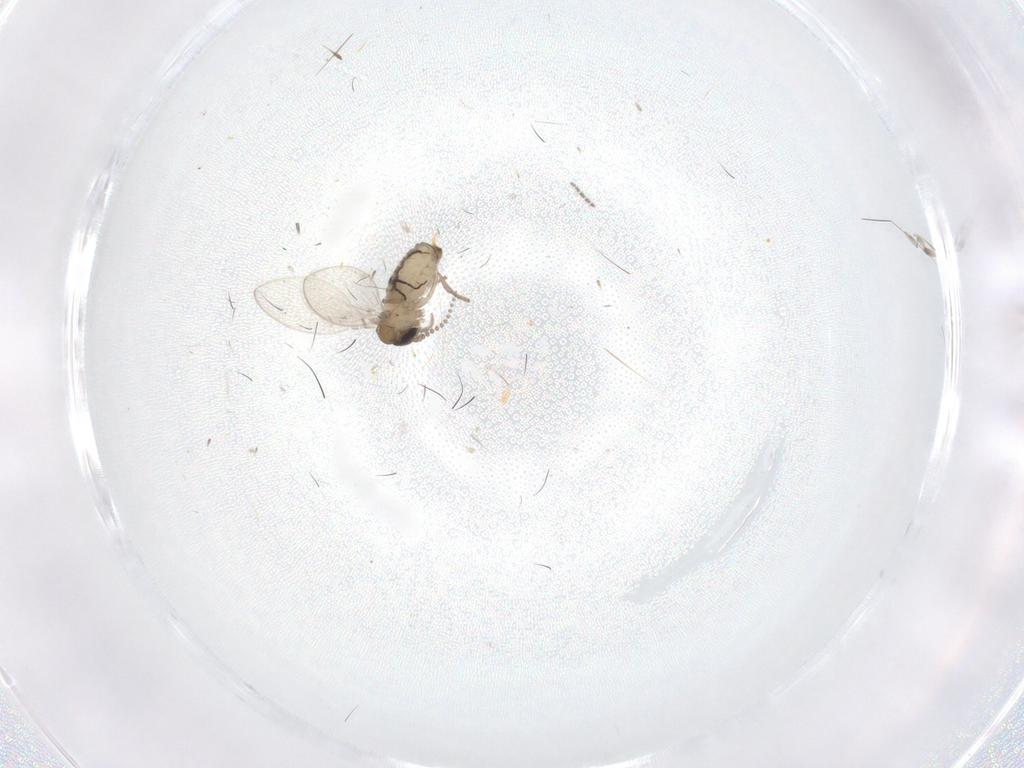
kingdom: Animalia
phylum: Arthropoda
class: Insecta
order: Diptera
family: Psychodidae
